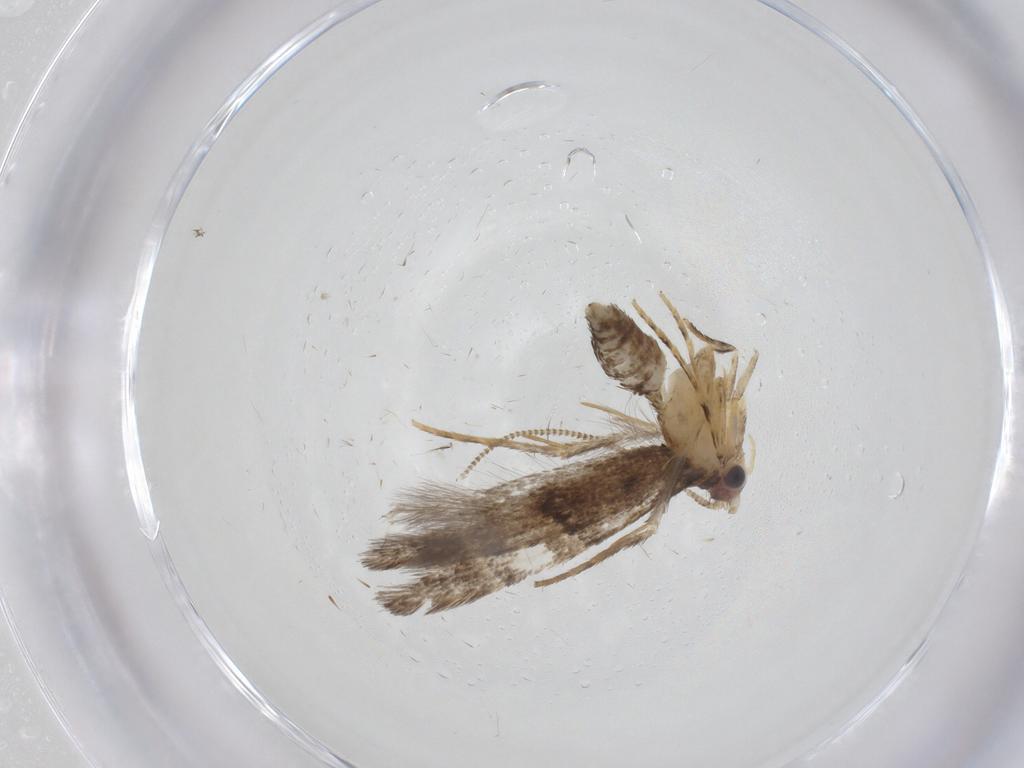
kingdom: Animalia
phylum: Arthropoda
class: Insecta
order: Lepidoptera
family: Tineidae
